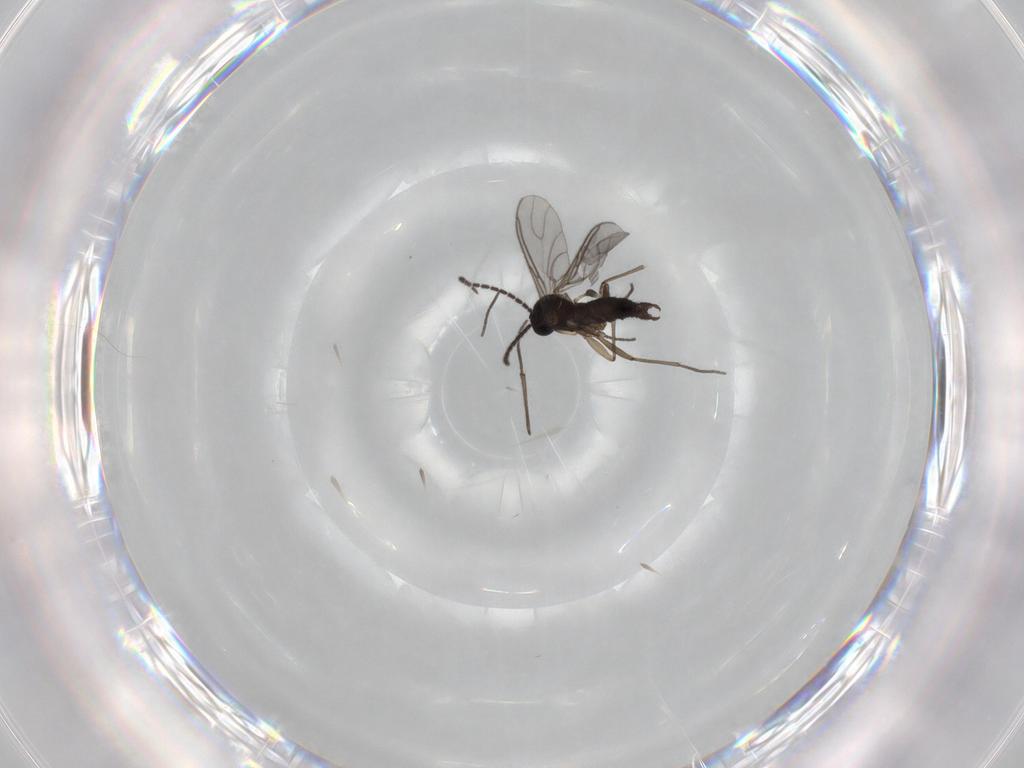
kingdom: Animalia
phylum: Arthropoda
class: Insecta
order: Diptera
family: Sciaridae
